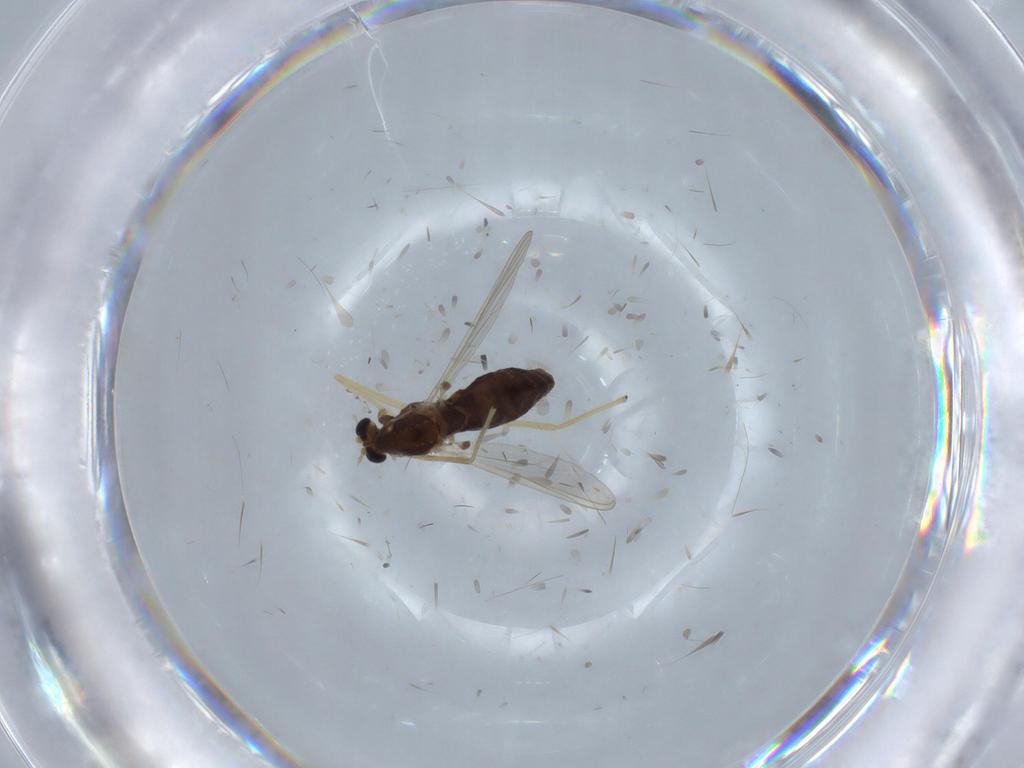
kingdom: Animalia
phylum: Arthropoda
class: Insecta
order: Diptera
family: Chironomidae
